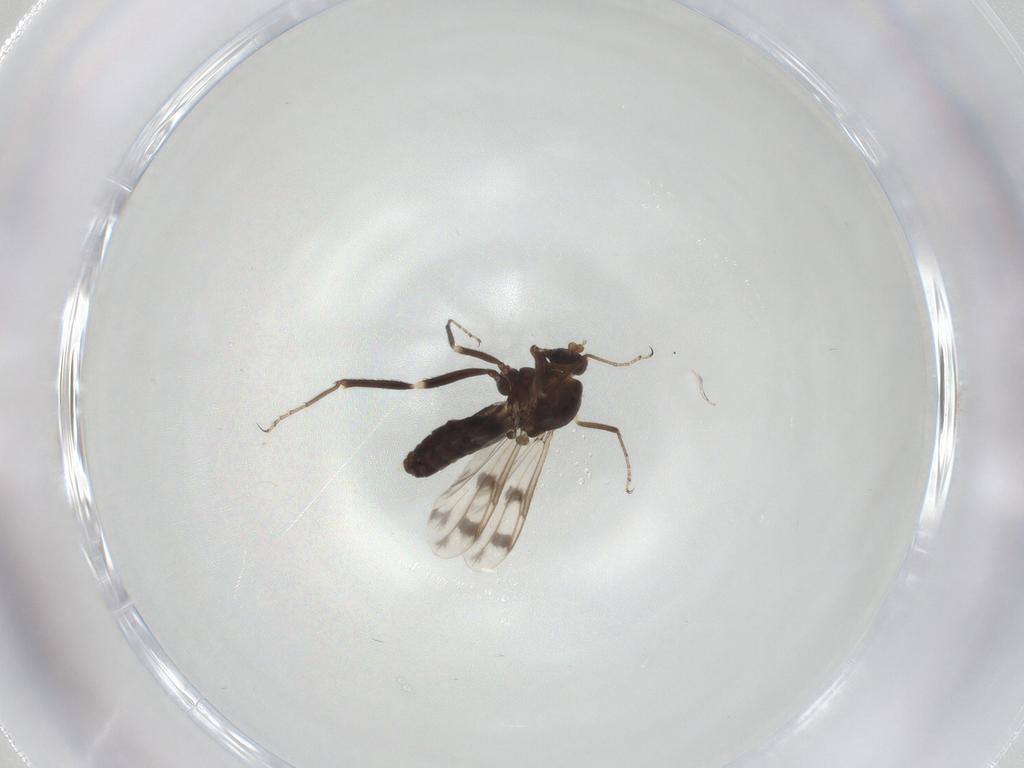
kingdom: Animalia
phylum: Arthropoda
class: Insecta
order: Diptera
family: Ceratopogonidae
